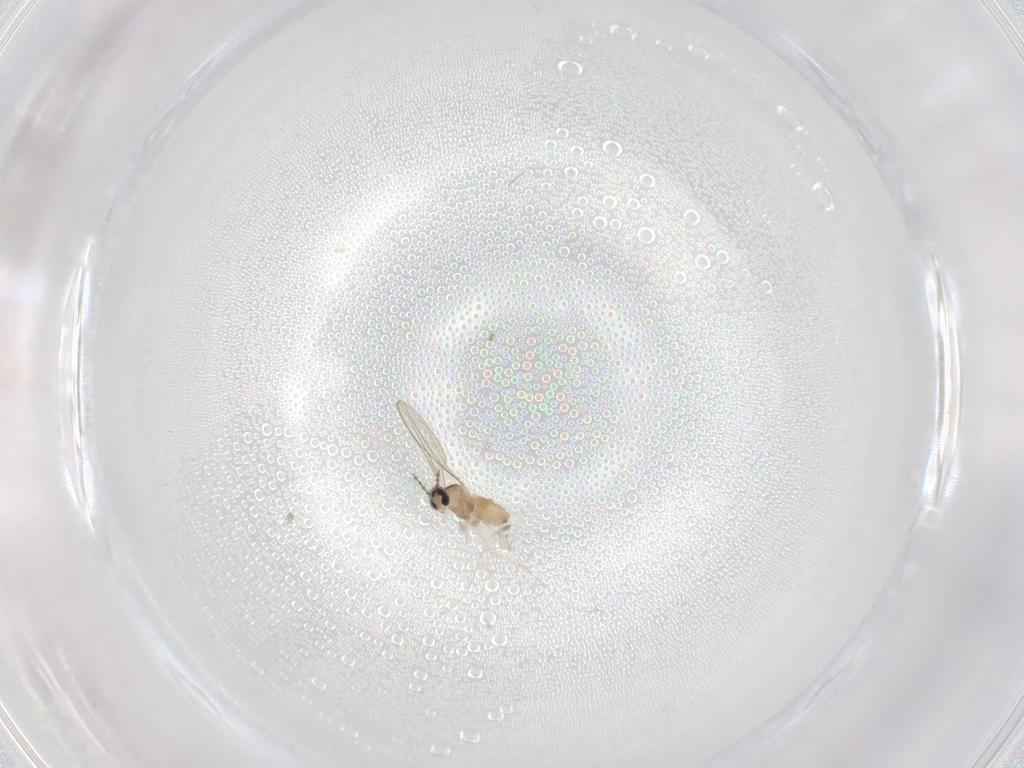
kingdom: Animalia
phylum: Arthropoda
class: Insecta
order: Diptera
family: Cecidomyiidae
